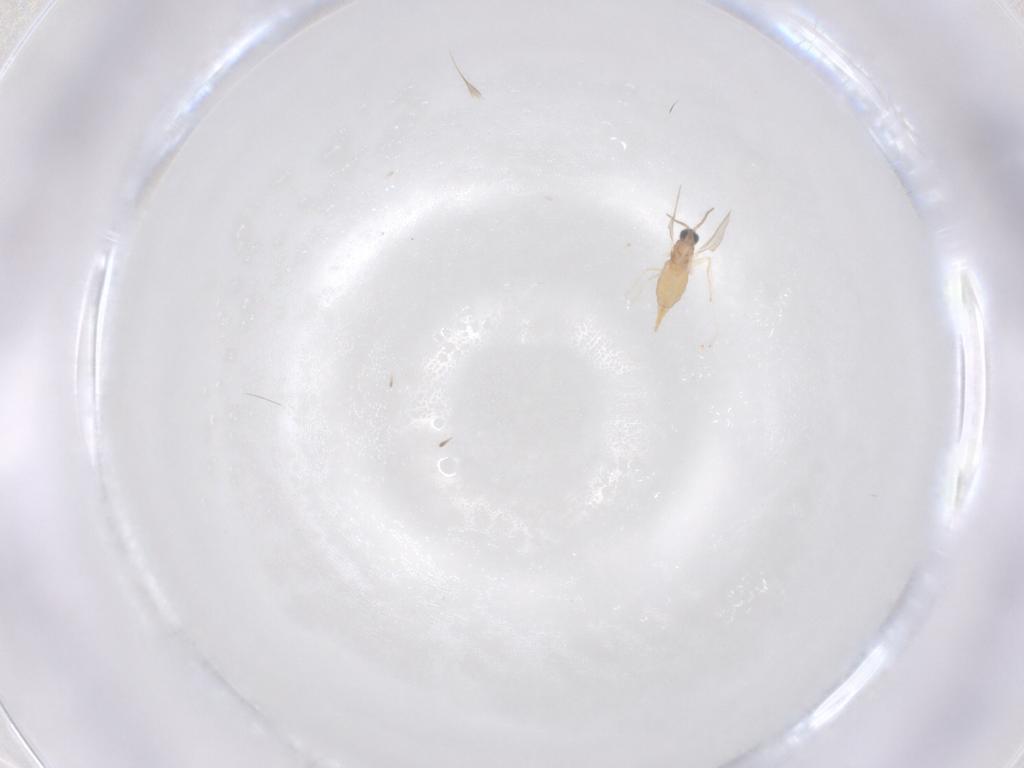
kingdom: Animalia
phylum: Arthropoda
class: Insecta
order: Diptera
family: Cecidomyiidae
